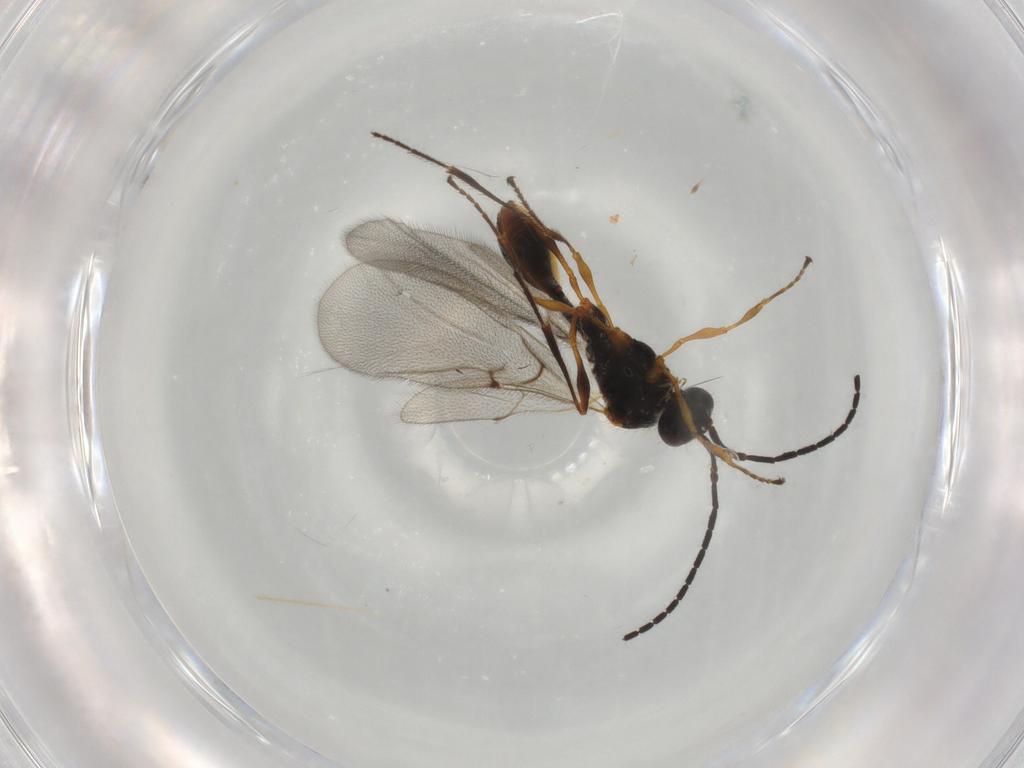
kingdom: Animalia
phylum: Arthropoda
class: Insecta
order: Hymenoptera
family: Diapriidae
